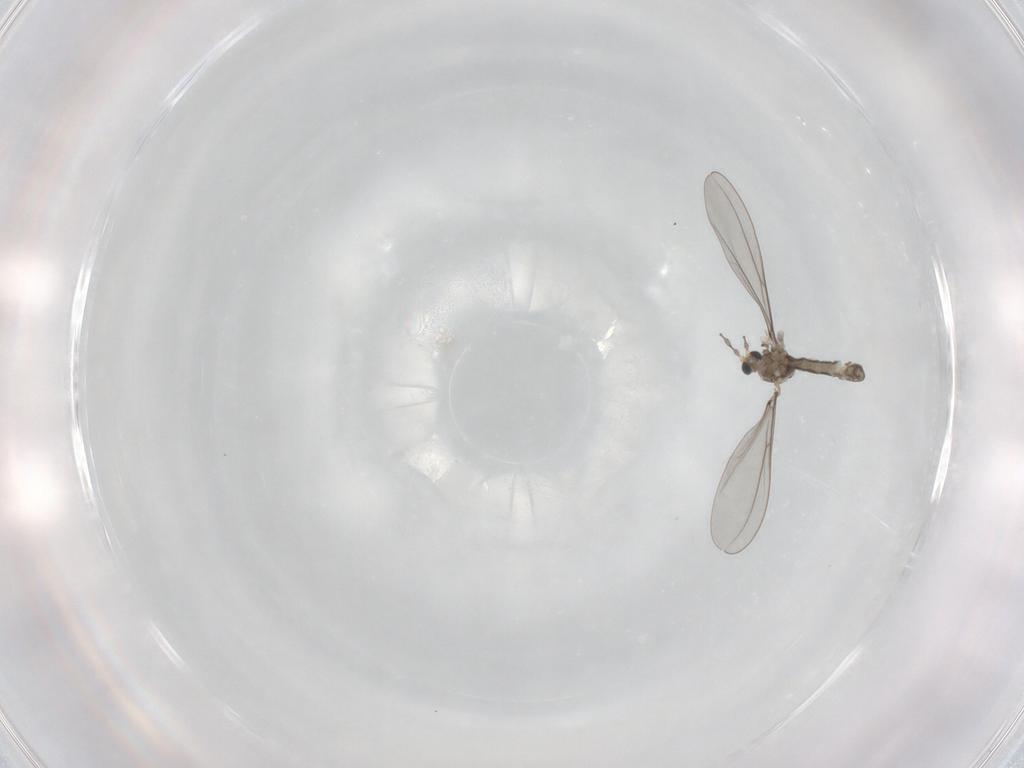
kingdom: Animalia
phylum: Arthropoda
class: Insecta
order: Diptera
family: Cecidomyiidae
